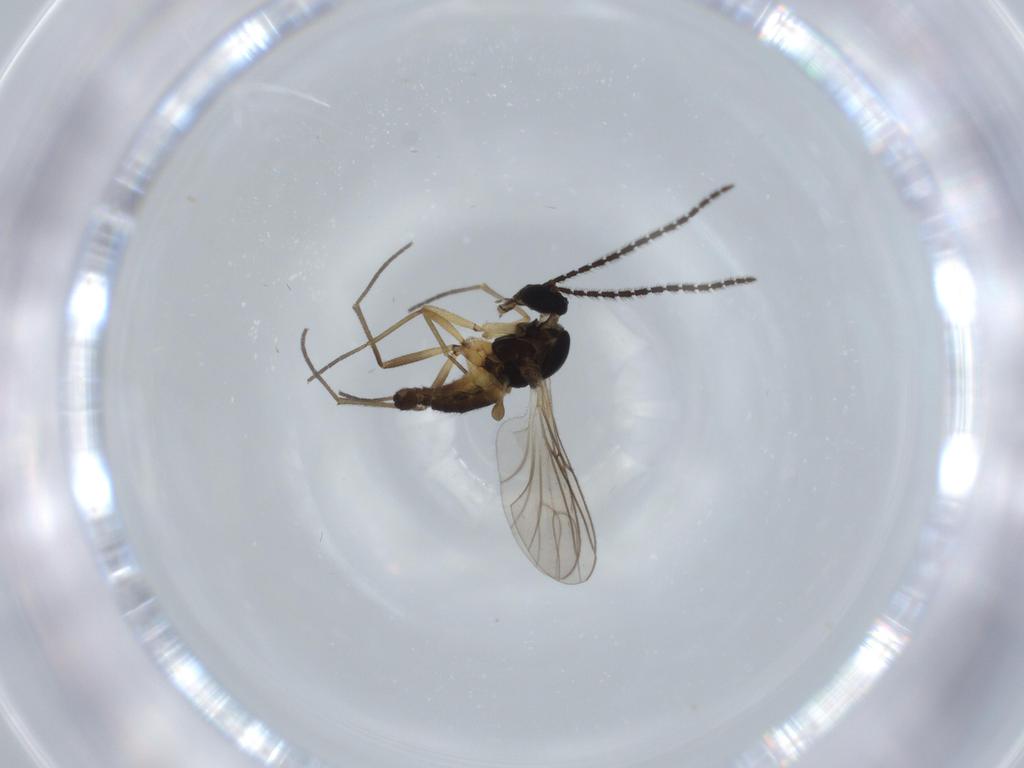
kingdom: Animalia
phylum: Arthropoda
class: Insecta
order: Diptera
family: Sciaridae
